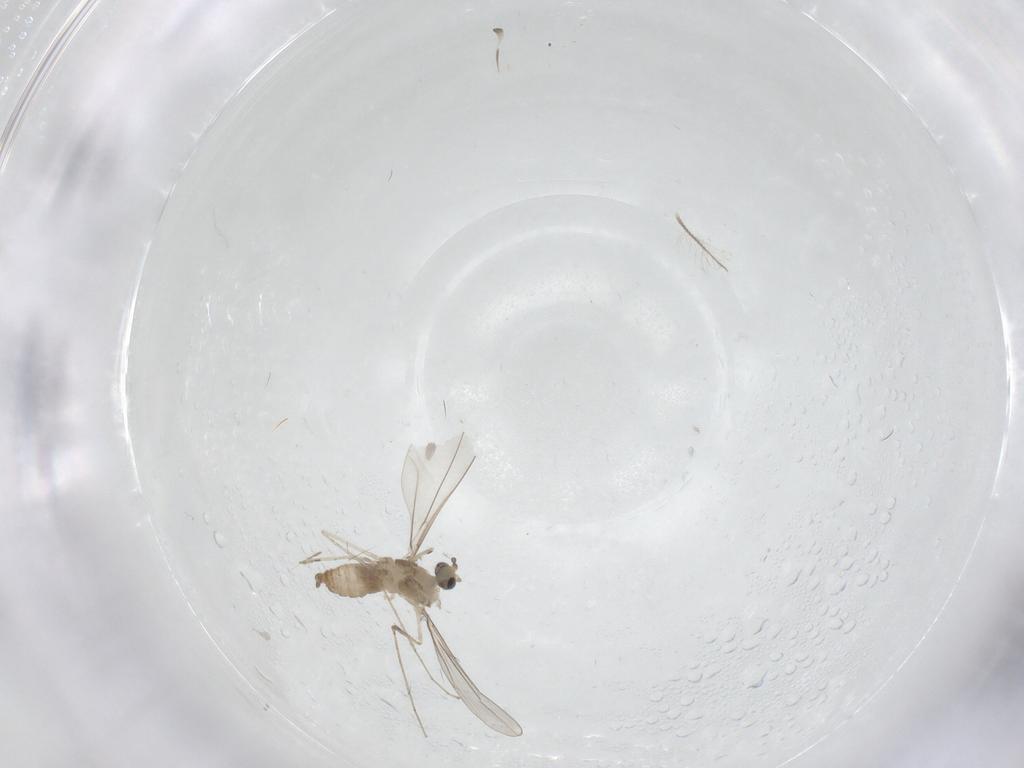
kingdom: Animalia
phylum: Arthropoda
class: Insecta
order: Diptera
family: Cecidomyiidae
